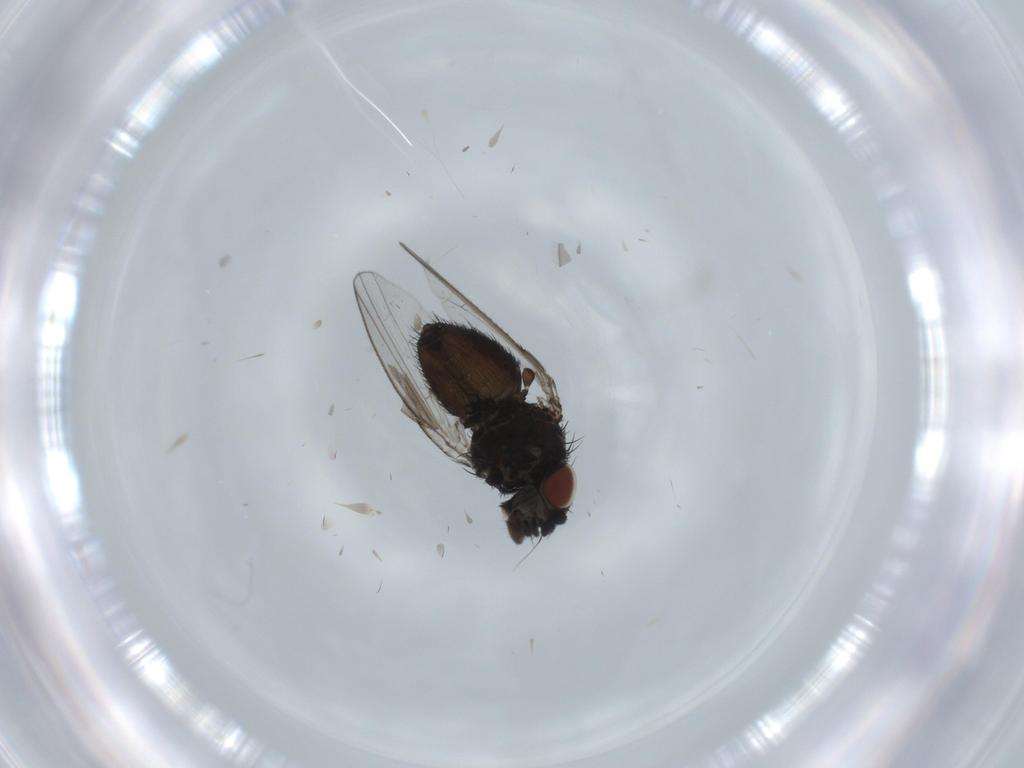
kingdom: Animalia
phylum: Arthropoda
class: Insecta
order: Diptera
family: Milichiidae
